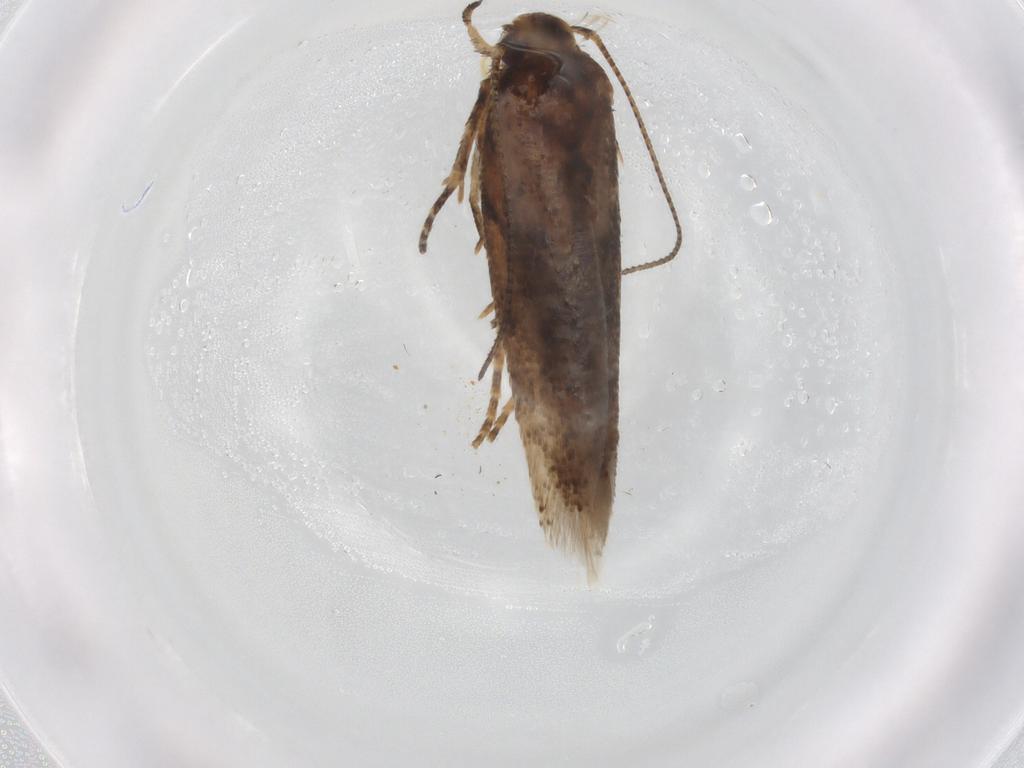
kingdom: Animalia
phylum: Arthropoda
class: Insecta
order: Lepidoptera
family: Gelechiidae
